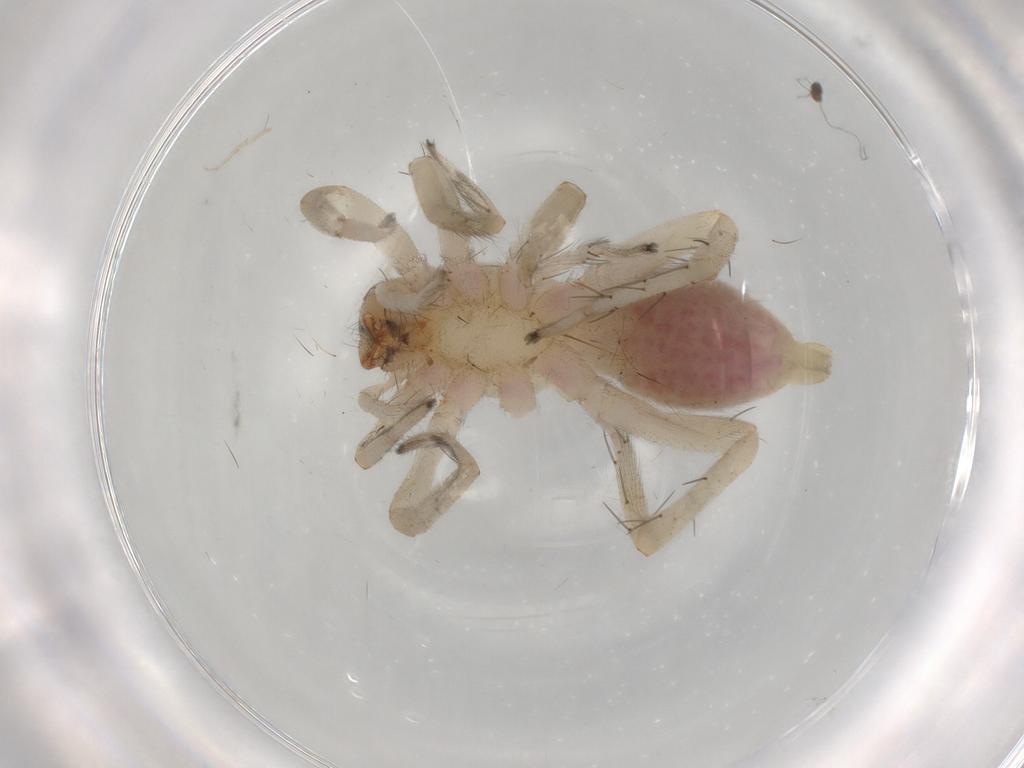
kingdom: Animalia
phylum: Arthropoda
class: Arachnida
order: Araneae
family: Clubionidae
